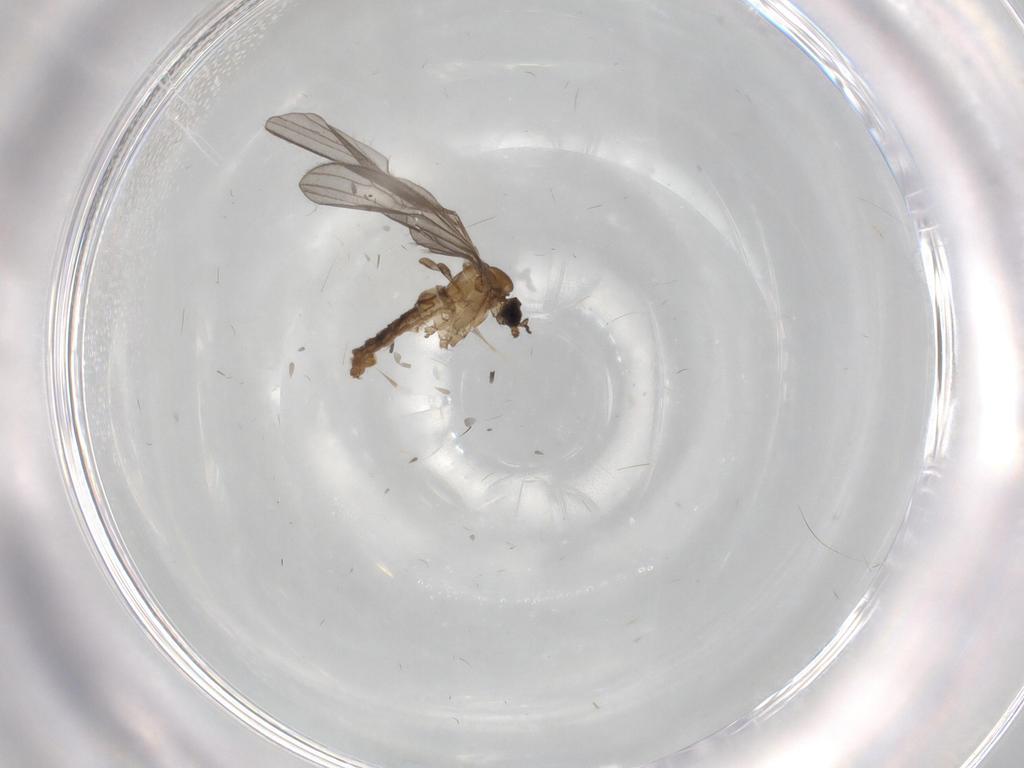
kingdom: Animalia
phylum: Arthropoda
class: Insecta
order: Diptera
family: Limoniidae
